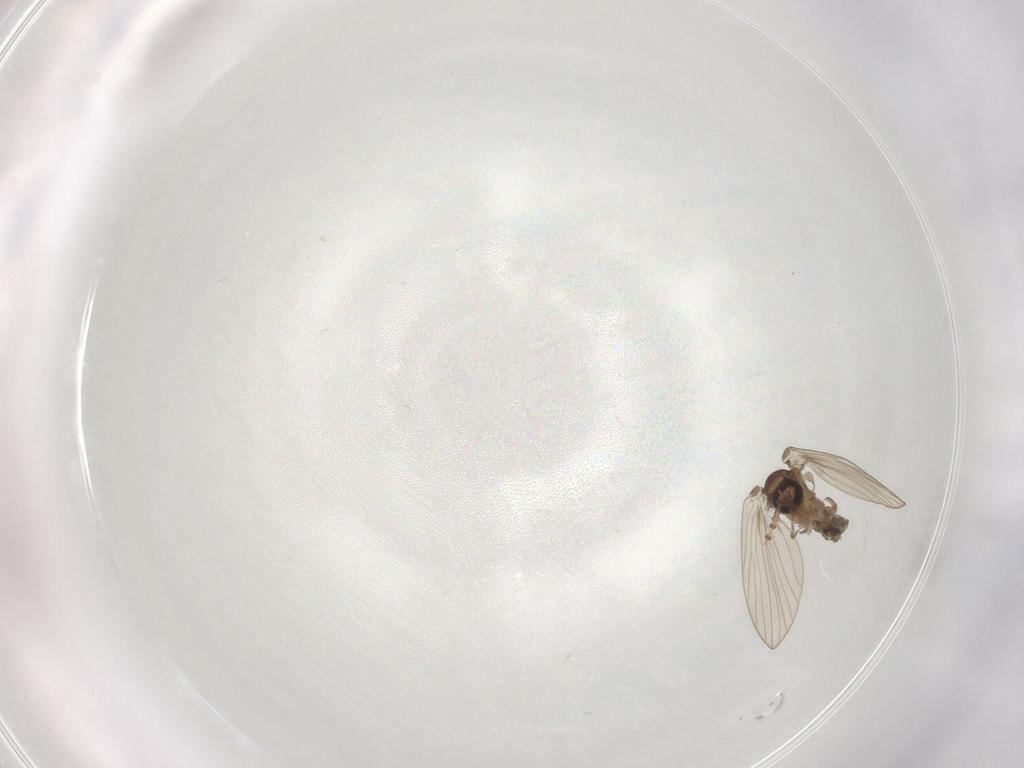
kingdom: Animalia
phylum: Arthropoda
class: Insecta
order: Diptera
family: Psychodidae
